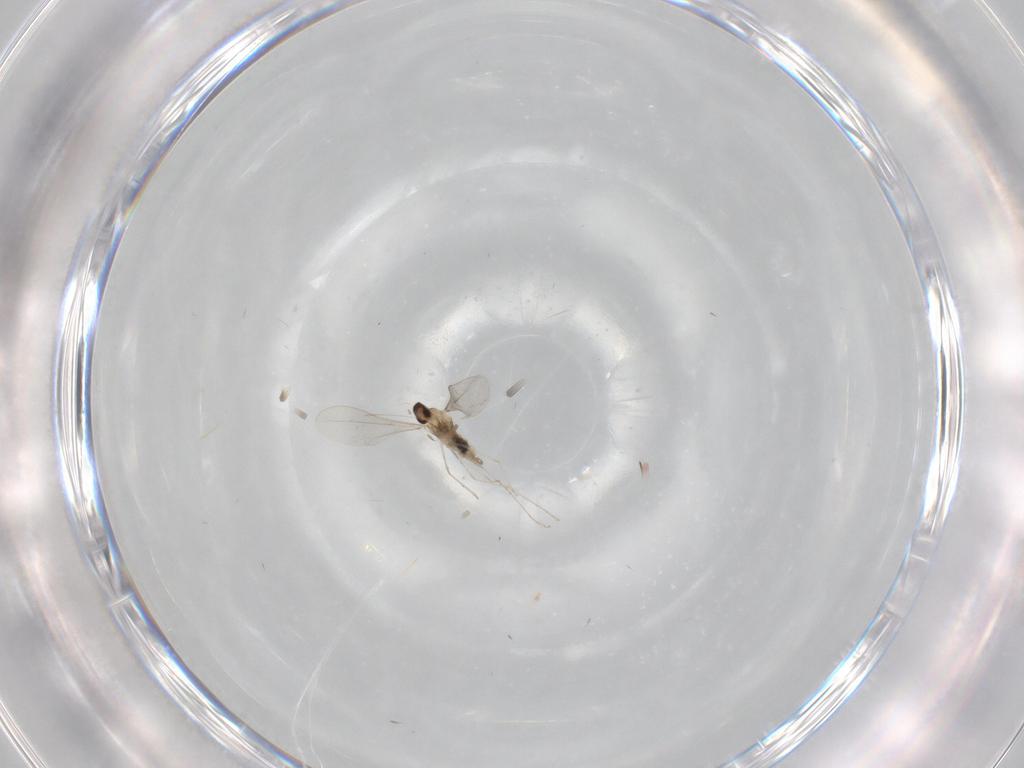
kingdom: Animalia
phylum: Arthropoda
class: Insecta
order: Diptera
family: Cecidomyiidae
